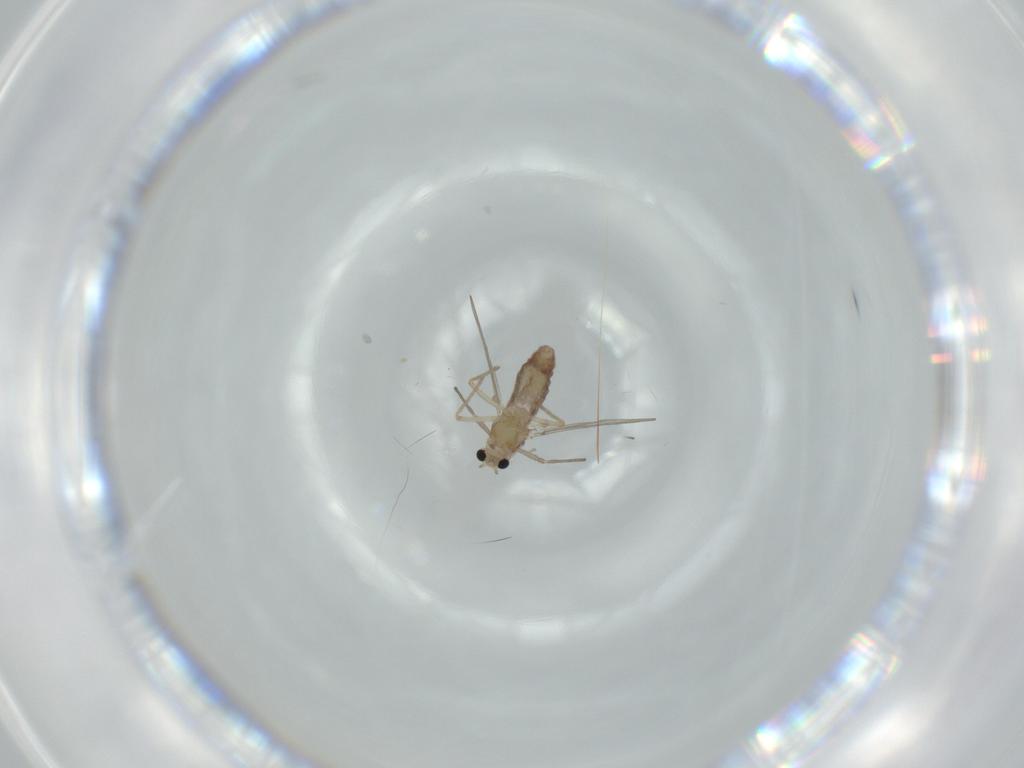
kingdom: Animalia
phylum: Arthropoda
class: Insecta
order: Diptera
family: Chironomidae
